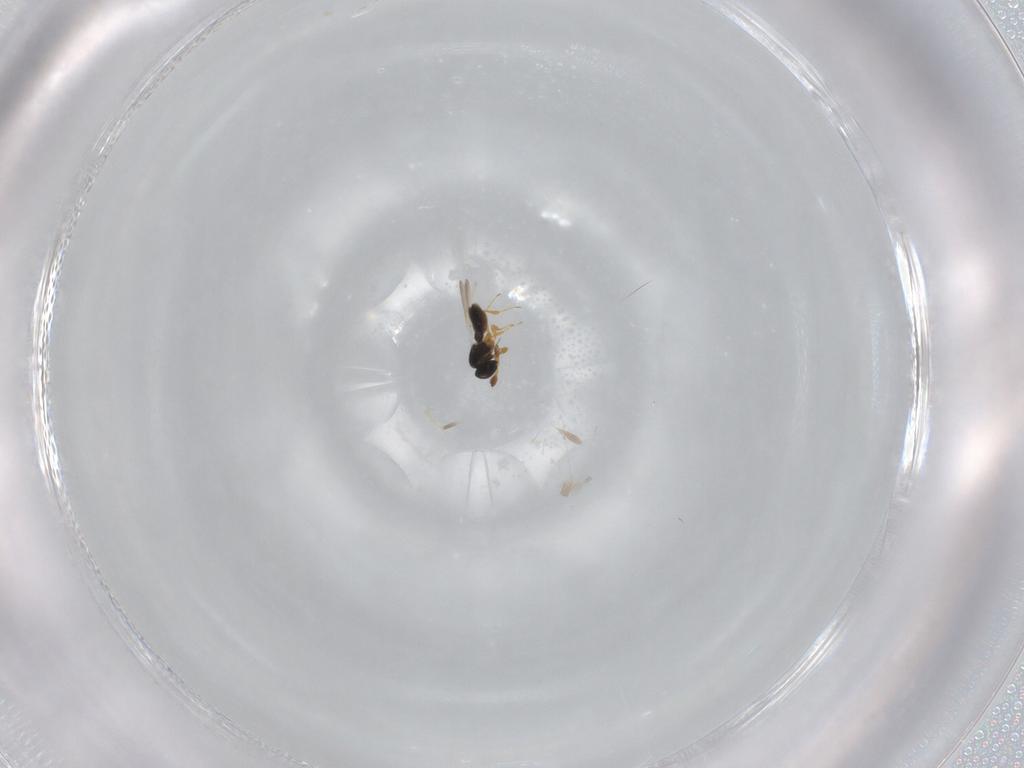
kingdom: Animalia
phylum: Arthropoda
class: Insecta
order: Hymenoptera
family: Platygastridae
